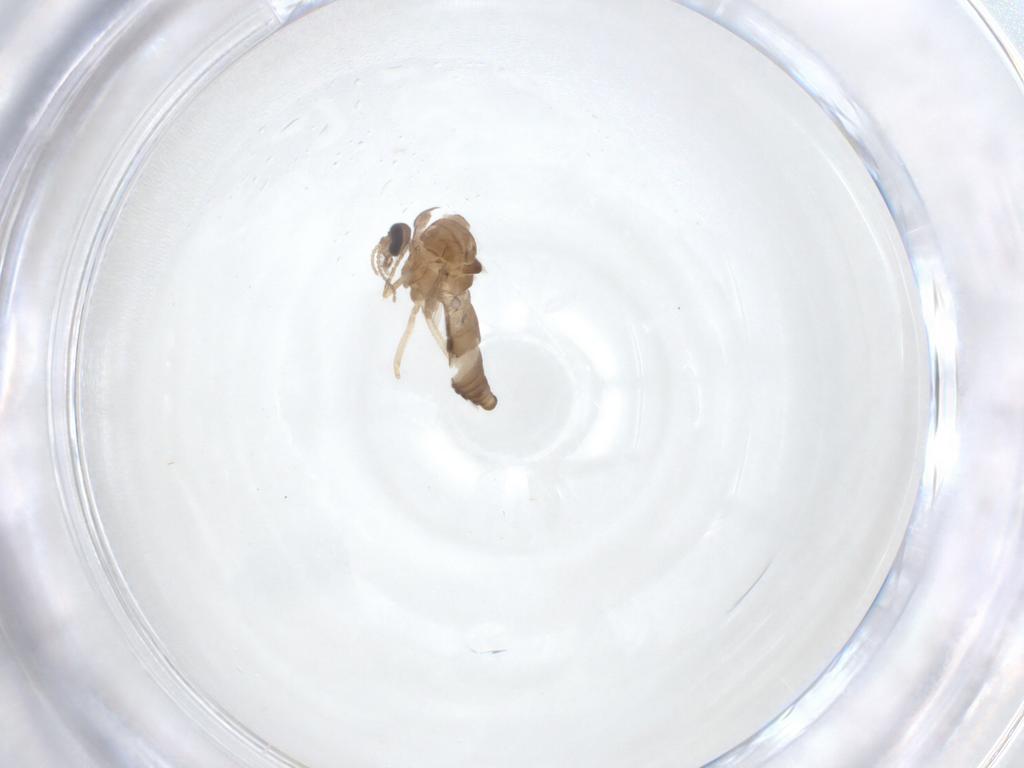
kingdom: Animalia
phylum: Arthropoda
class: Insecta
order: Diptera
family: Ceratopogonidae
